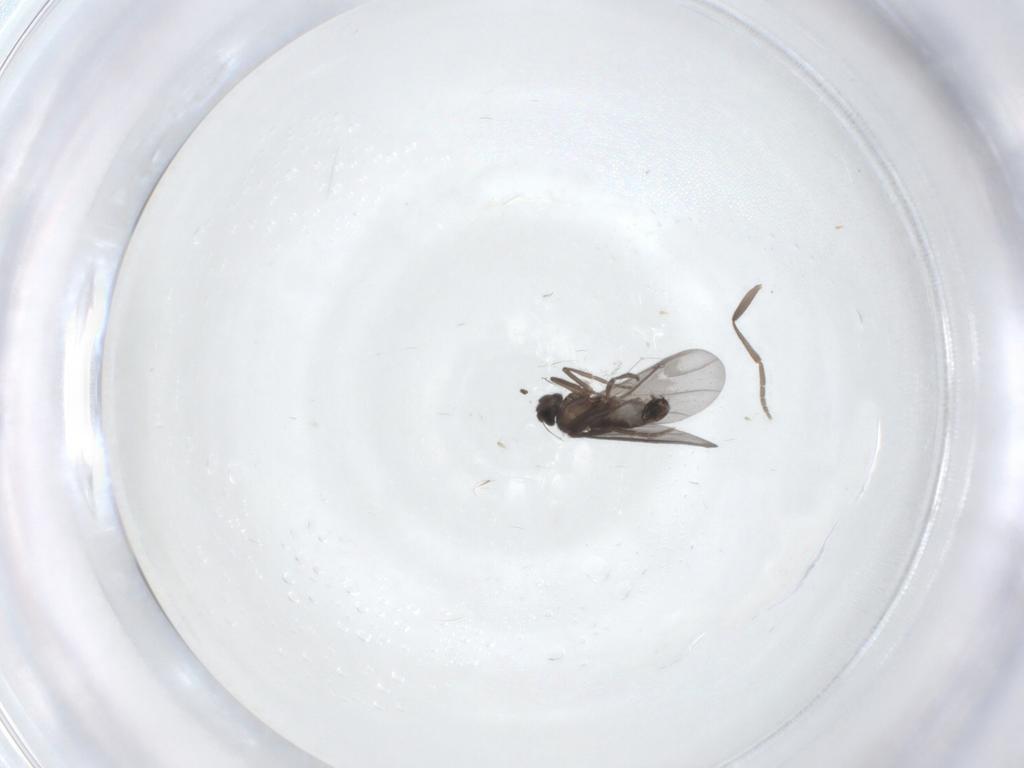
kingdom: Animalia
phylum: Arthropoda
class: Insecta
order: Diptera
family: Phoridae
